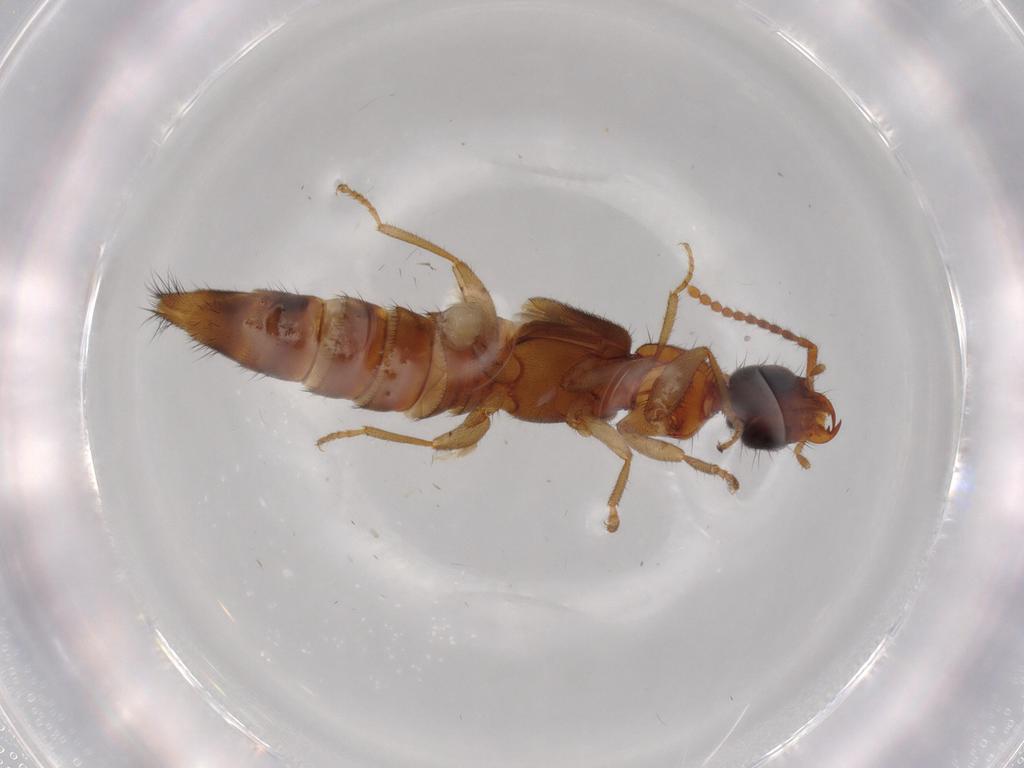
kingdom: Animalia
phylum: Arthropoda
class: Insecta
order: Coleoptera
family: Staphylinidae
